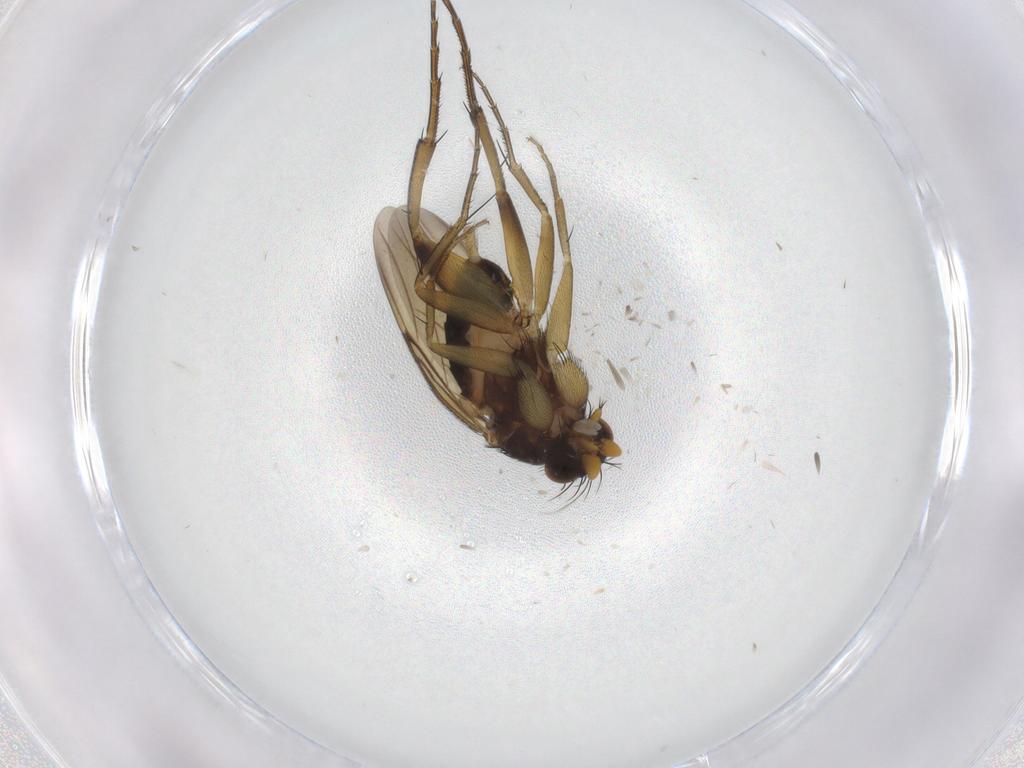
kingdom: Animalia
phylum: Arthropoda
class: Insecta
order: Diptera
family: Phoridae
